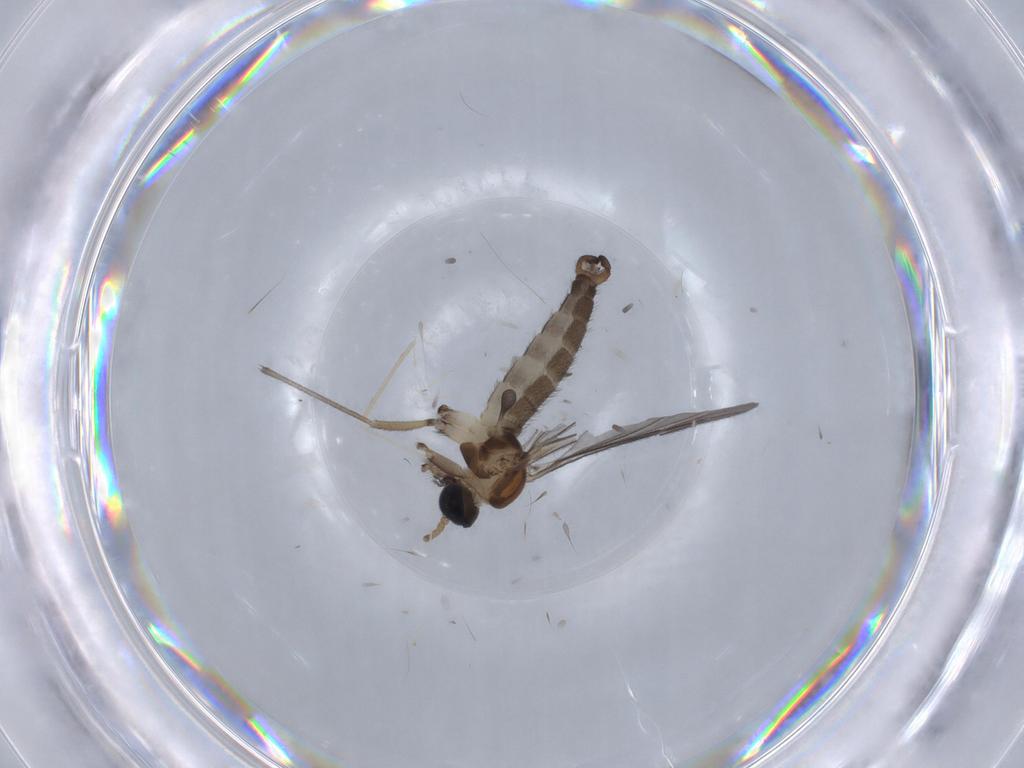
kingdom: Animalia
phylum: Arthropoda
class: Insecta
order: Diptera
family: Sciaridae
